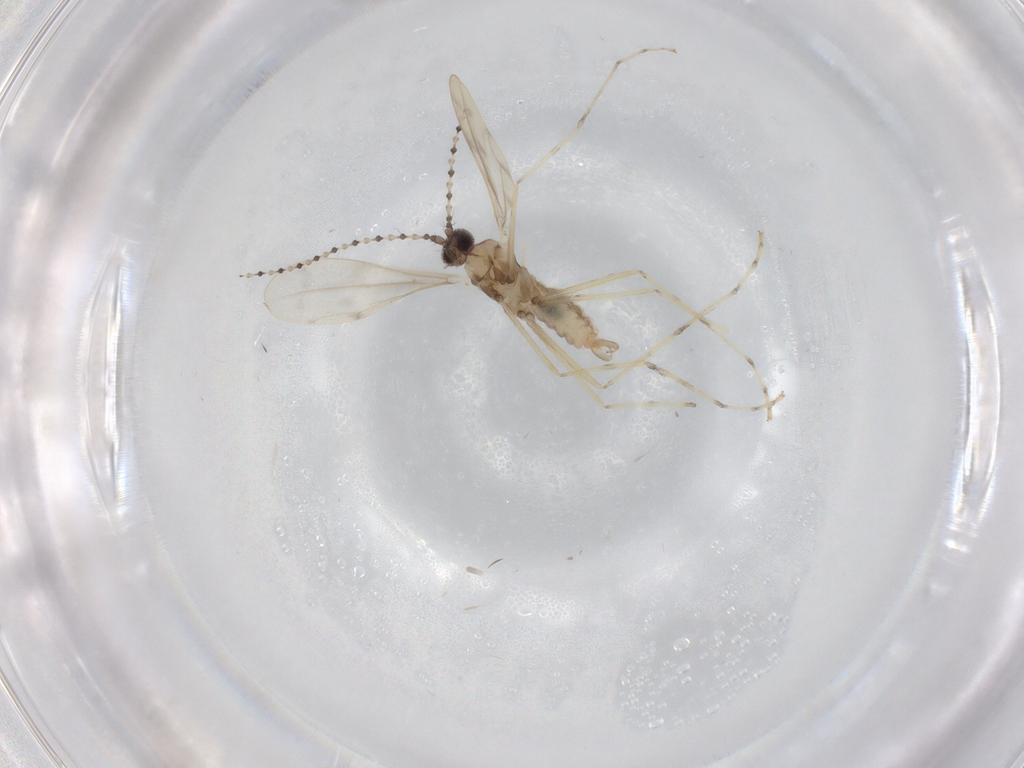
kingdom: Animalia
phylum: Arthropoda
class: Insecta
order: Diptera
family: Cecidomyiidae
